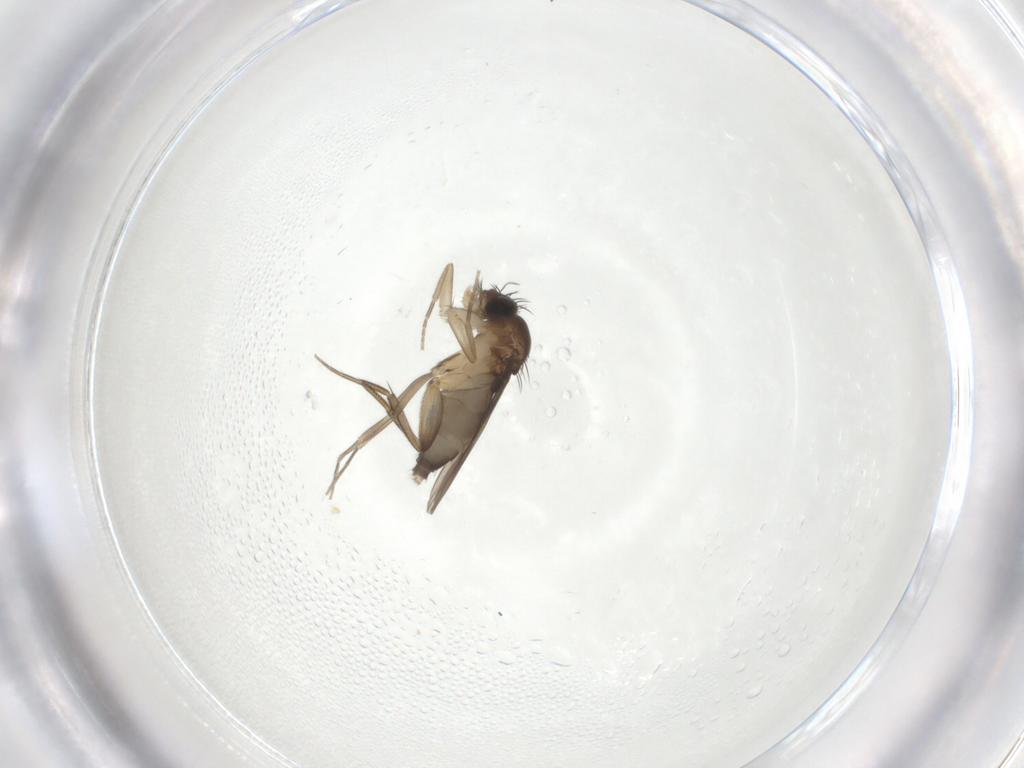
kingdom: Animalia
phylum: Arthropoda
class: Insecta
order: Diptera
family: Phoridae
